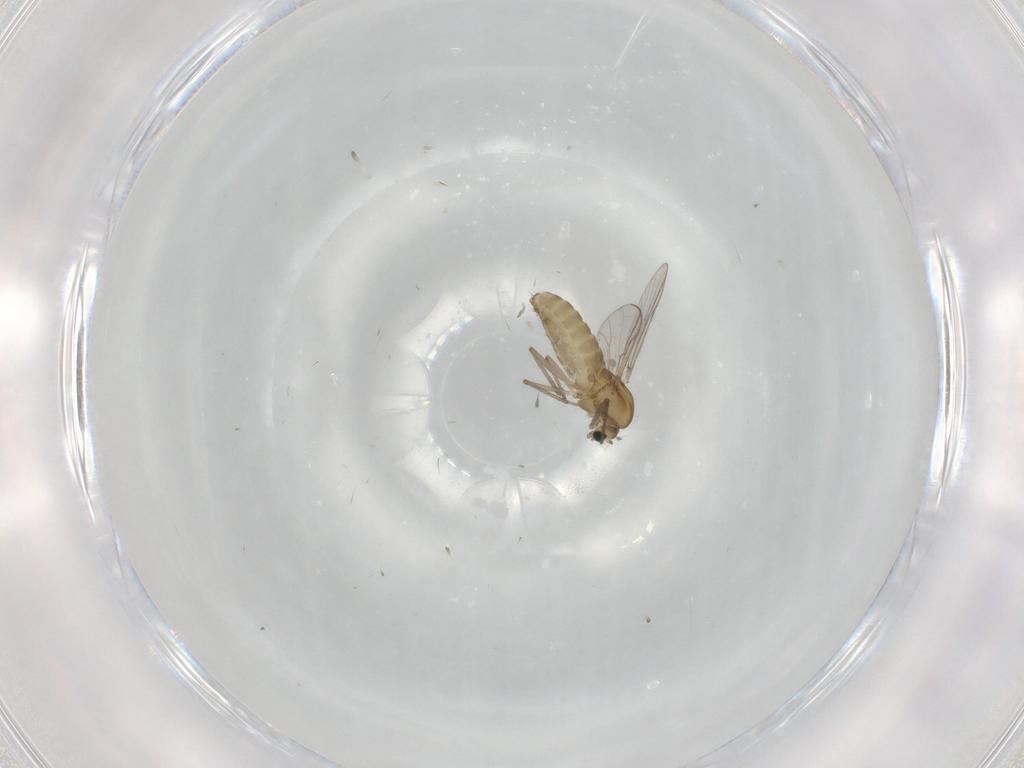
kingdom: Animalia
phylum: Arthropoda
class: Insecta
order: Diptera
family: Chironomidae
